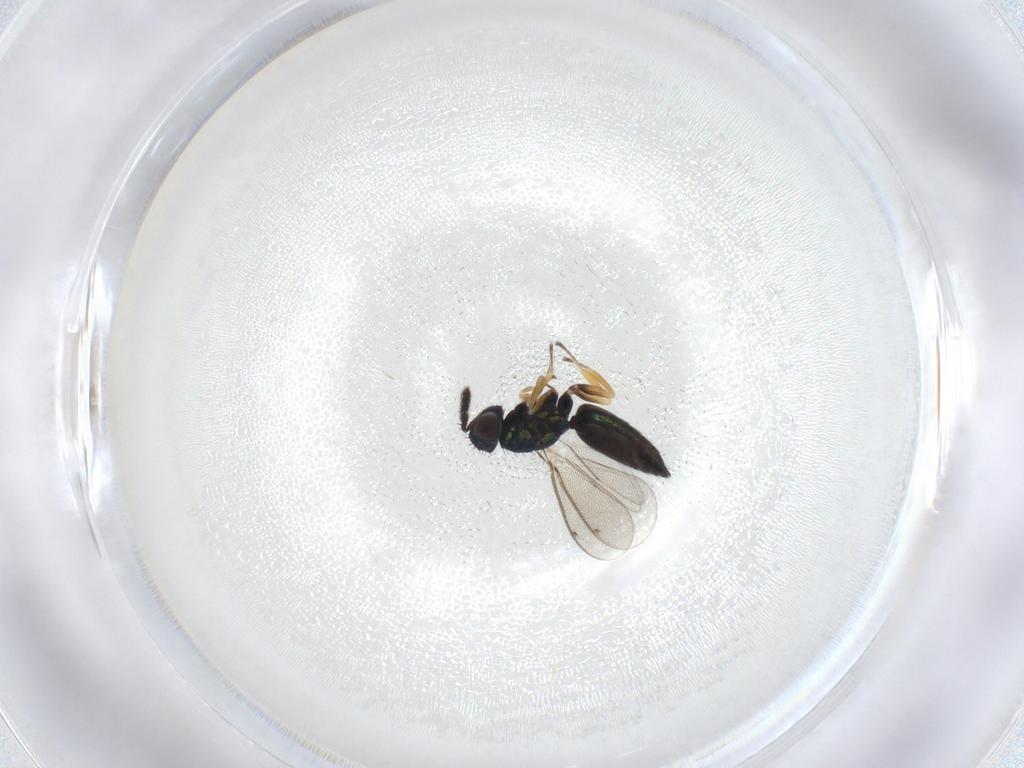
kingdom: Animalia
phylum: Arthropoda
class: Insecta
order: Hymenoptera
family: Eulophidae
